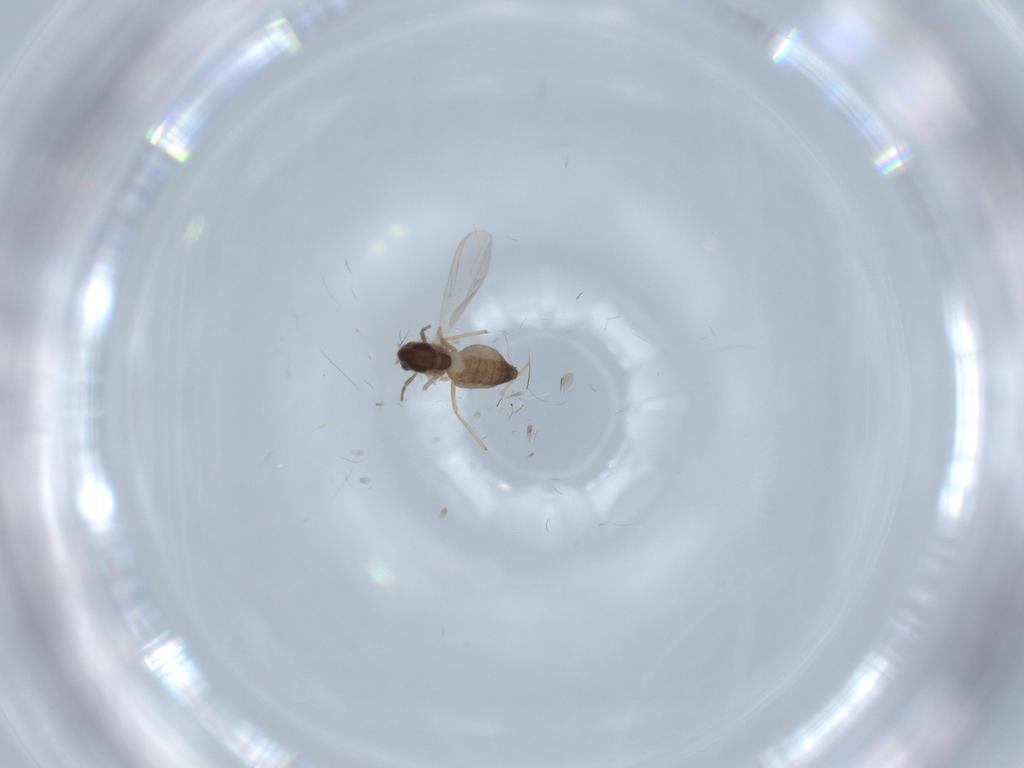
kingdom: Animalia
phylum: Arthropoda
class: Insecta
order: Diptera
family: Chironomidae
